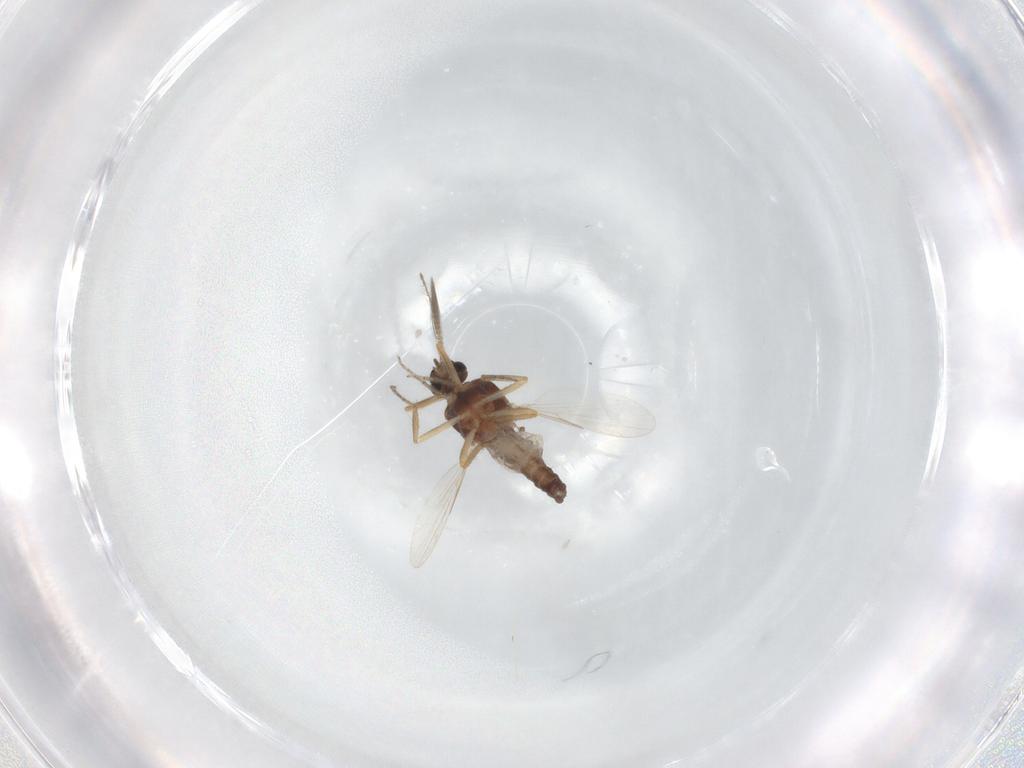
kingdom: Animalia
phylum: Arthropoda
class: Insecta
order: Diptera
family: Ceratopogonidae
